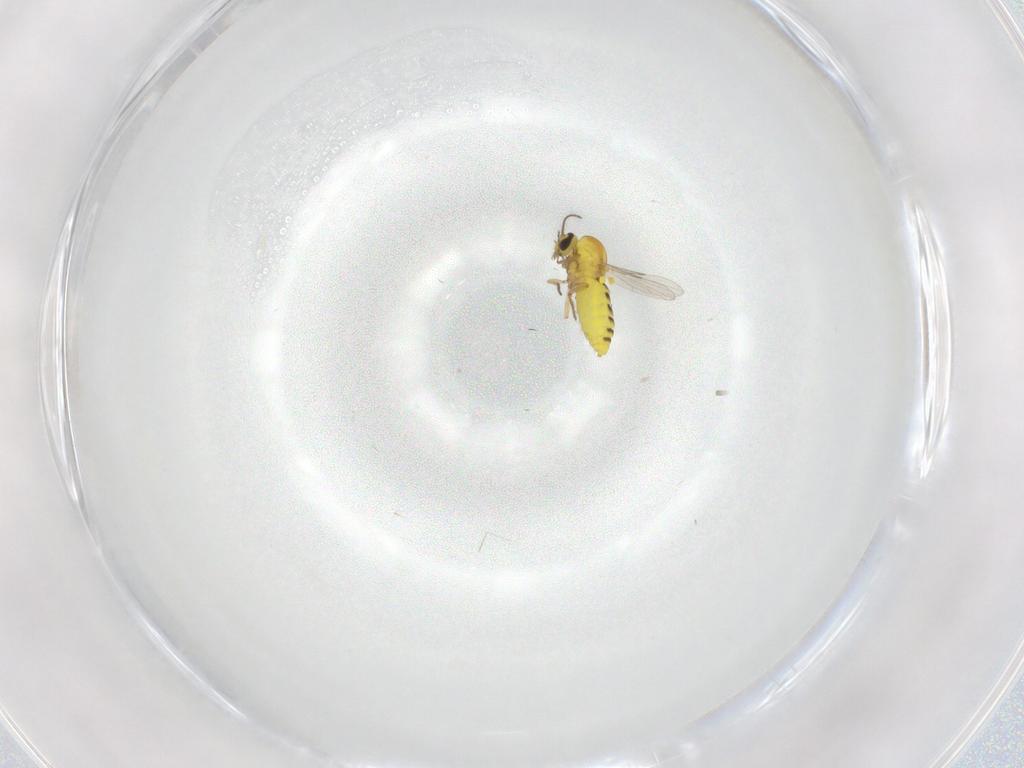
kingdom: Animalia
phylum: Arthropoda
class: Insecta
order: Diptera
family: Ceratopogonidae
